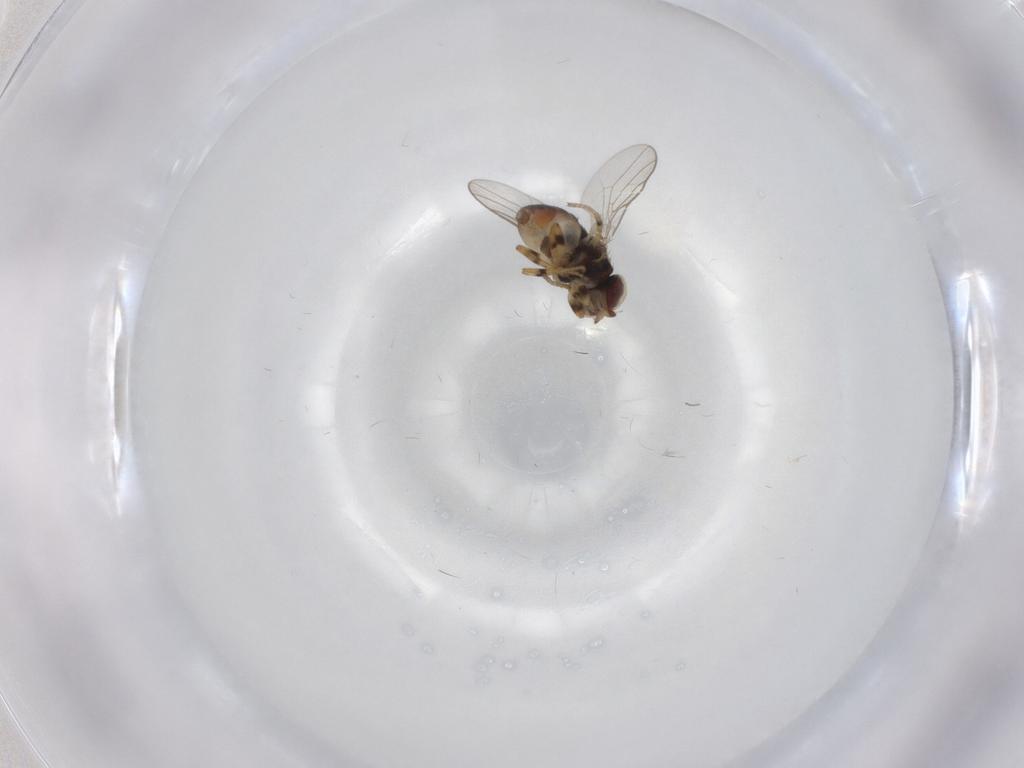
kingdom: Animalia
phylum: Arthropoda
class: Insecta
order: Diptera
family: Chloropidae
